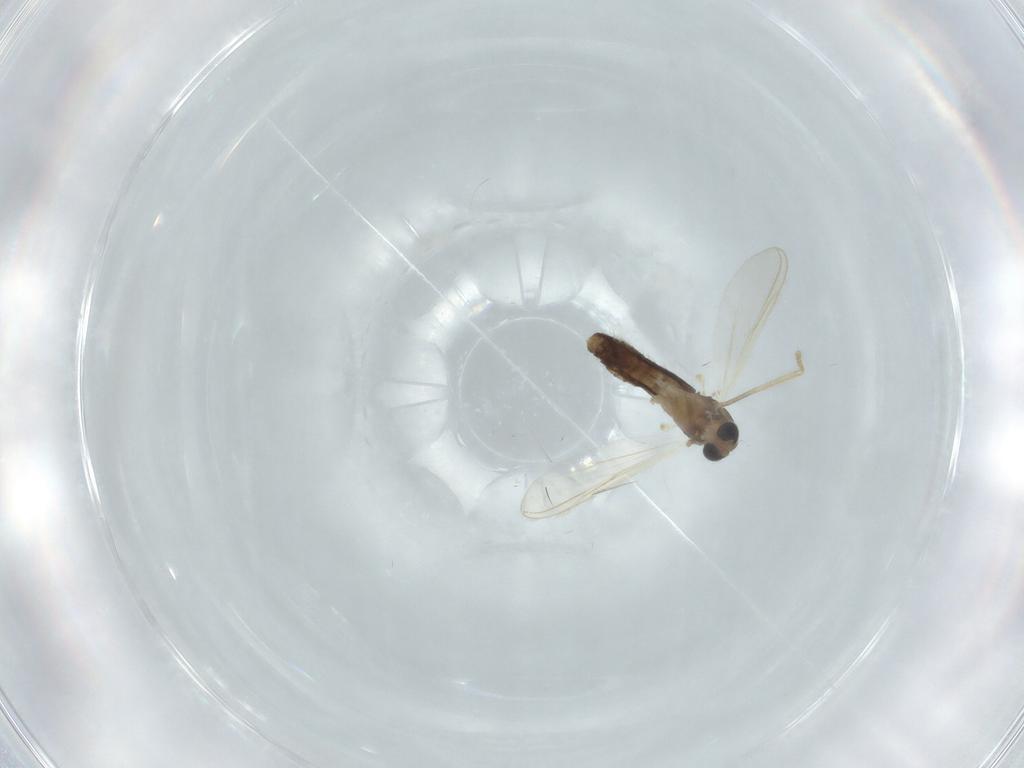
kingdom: Animalia
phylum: Arthropoda
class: Insecta
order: Diptera
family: Chironomidae
